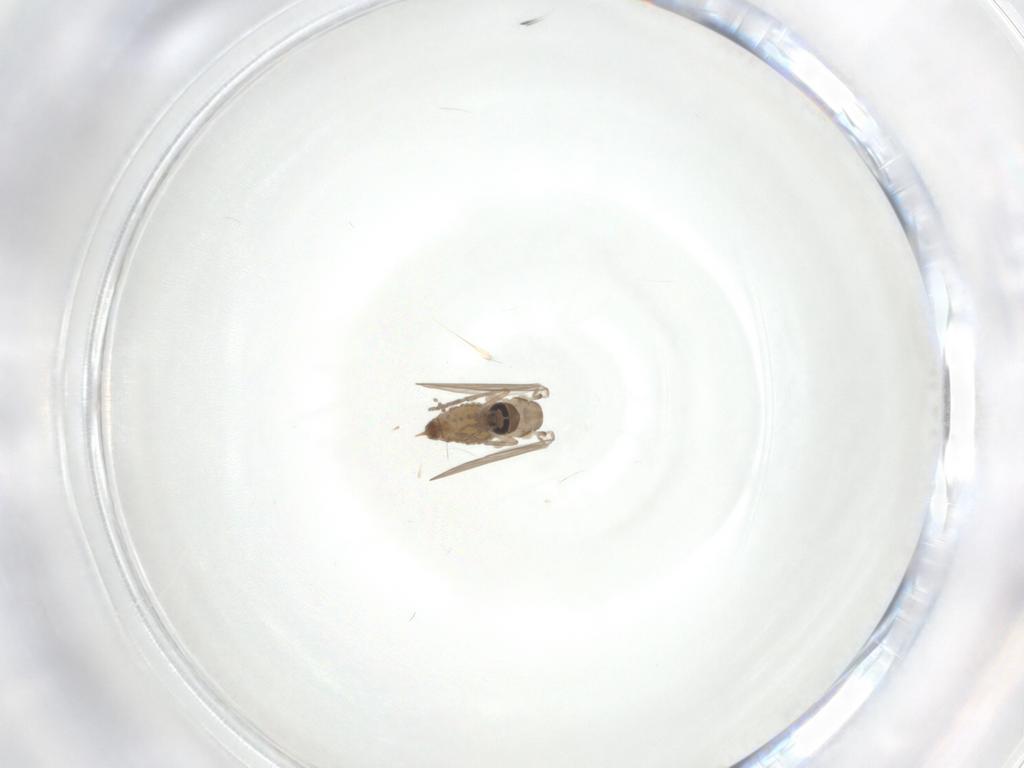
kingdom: Animalia
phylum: Arthropoda
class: Insecta
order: Diptera
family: Psychodidae
